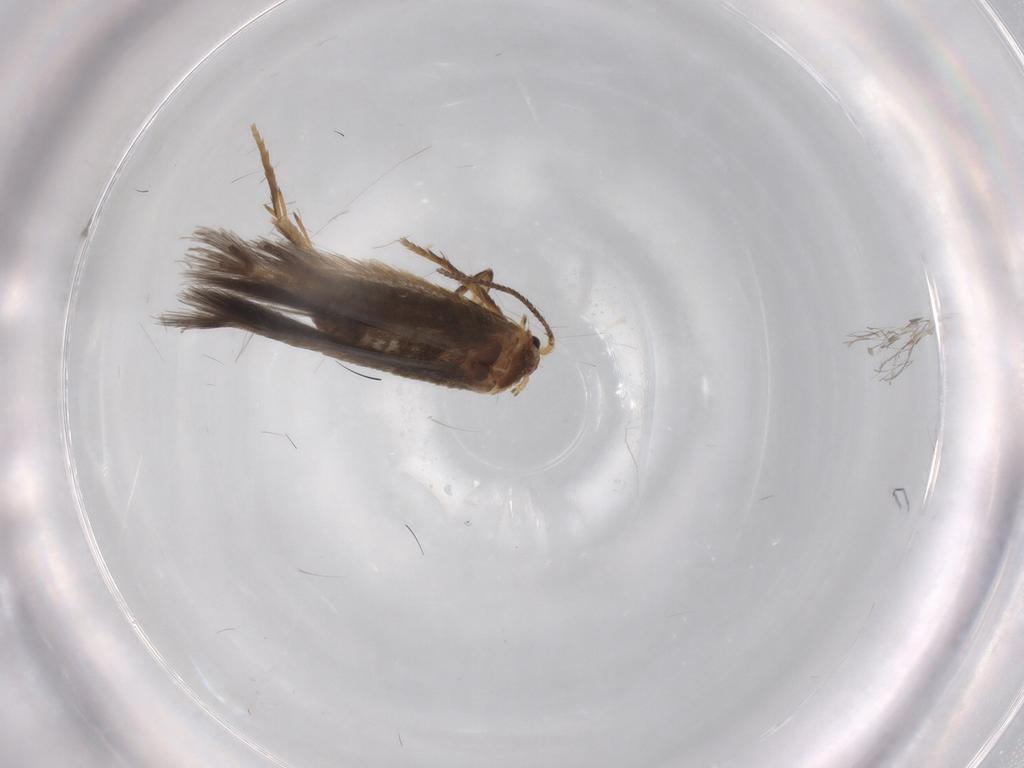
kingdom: Animalia
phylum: Arthropoda
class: Insecta
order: Lepidoptera
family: Nepticulidae
